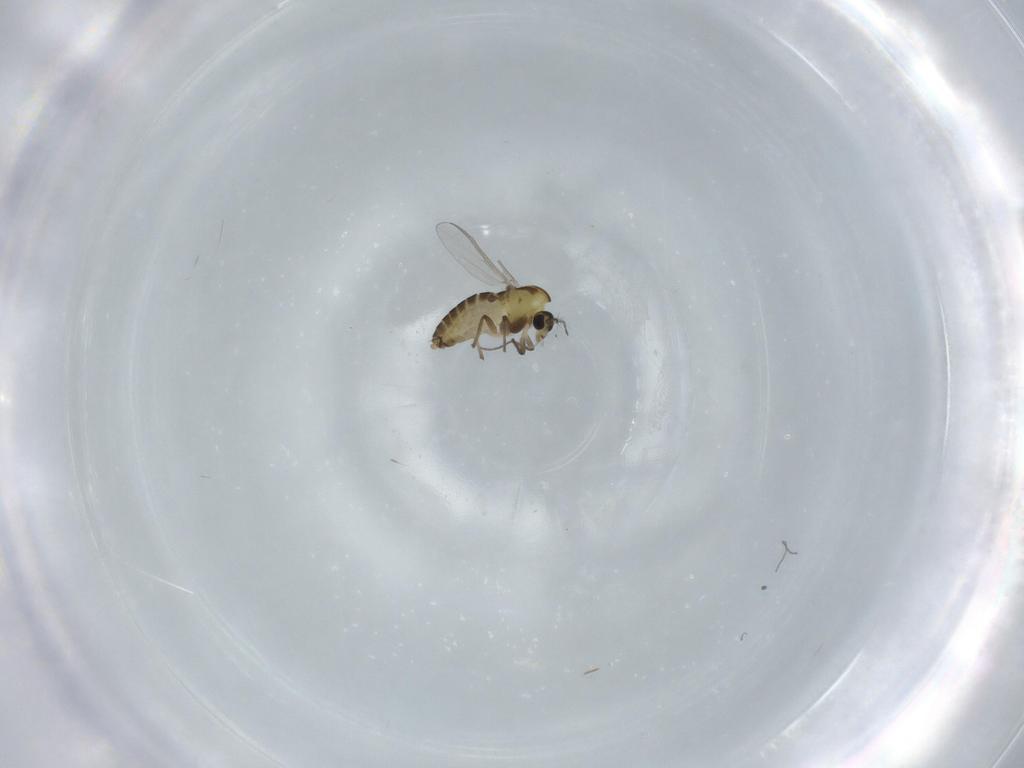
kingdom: Animalia
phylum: Arthropoda
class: Insecta
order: Diptera
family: Chironomidae
